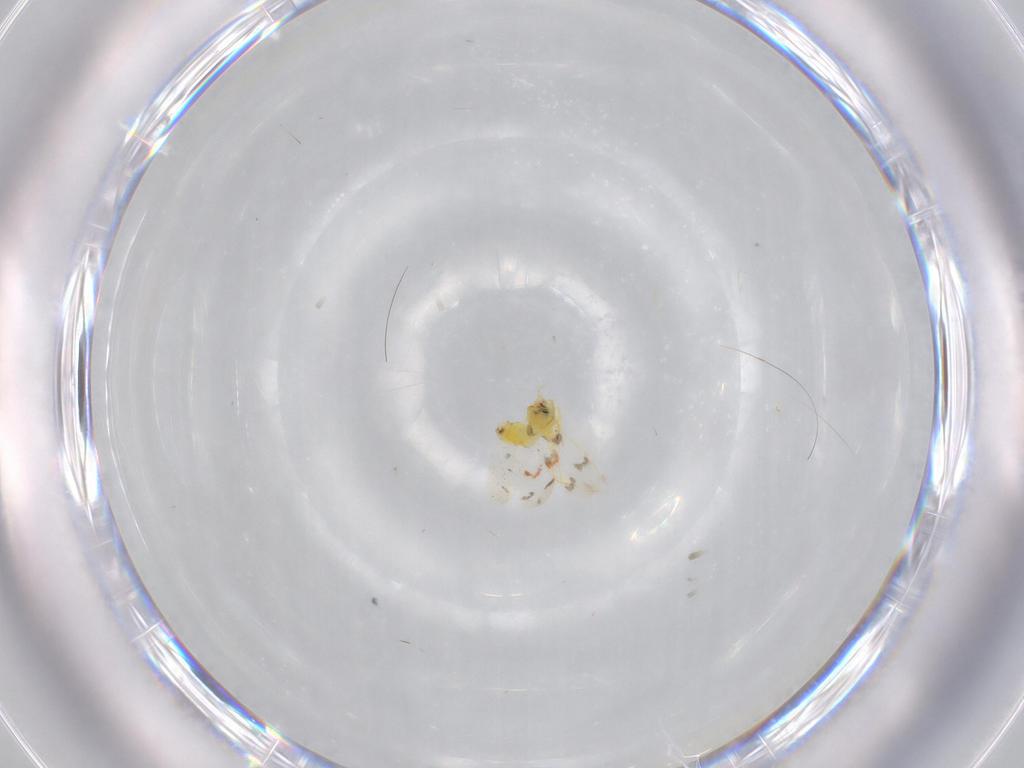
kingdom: Animalia
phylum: Arthropoda
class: Insecta
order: Hemiptera
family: Aleyrodidae
